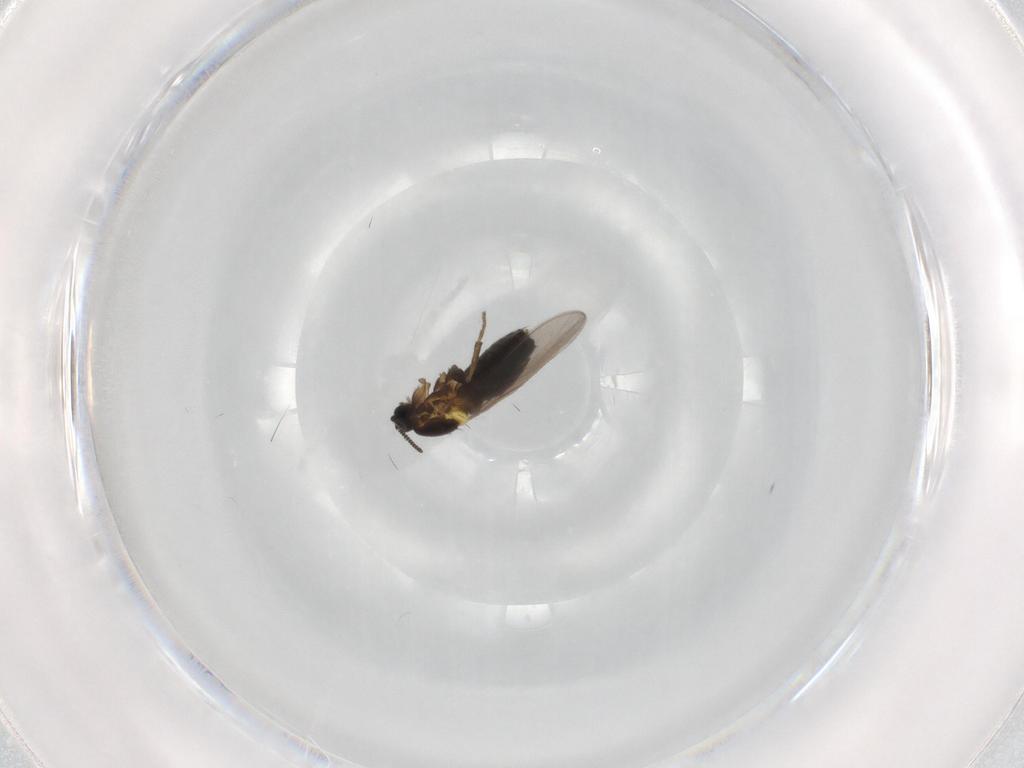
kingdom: Animalia
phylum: Arthropoda
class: Insecta
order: Diptera
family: Scatopsidae
